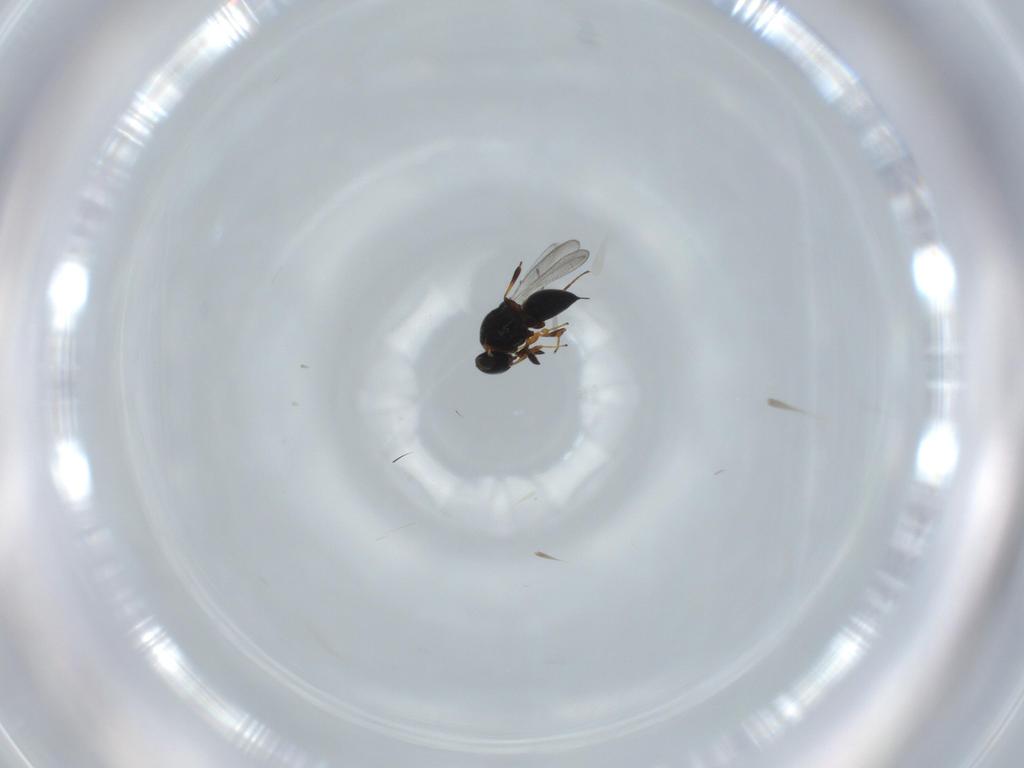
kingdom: Animalia
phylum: Arthropoda
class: Insecta
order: Hymenoptera
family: Platygastridae
